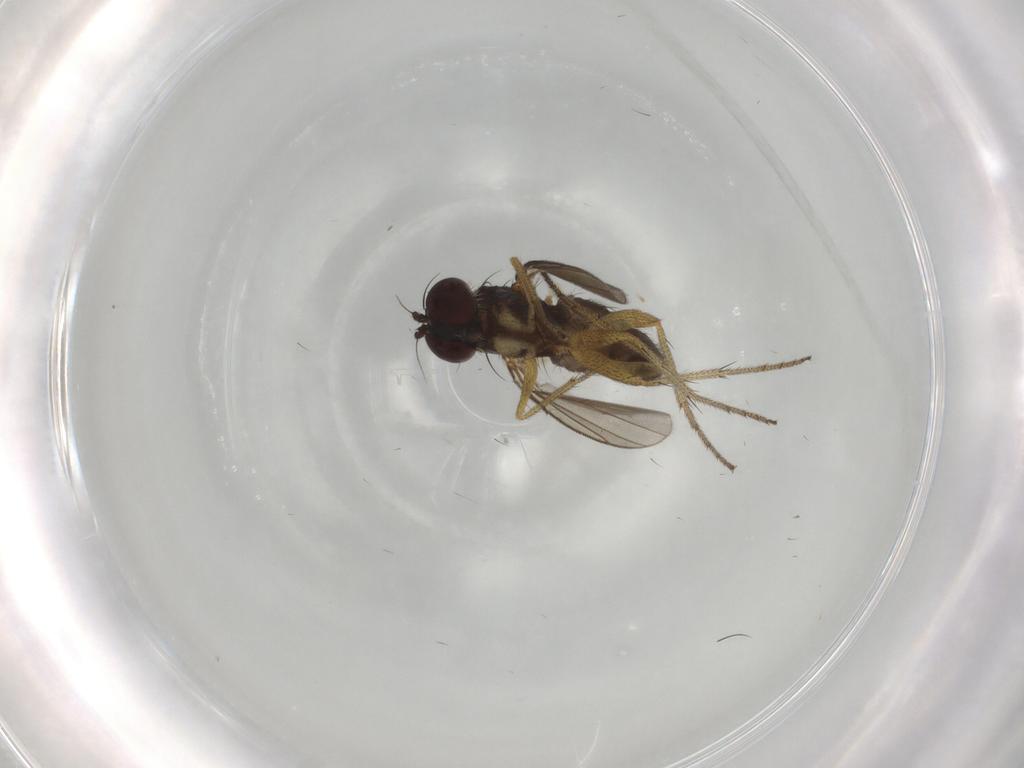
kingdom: Animalia
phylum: Arthropoda
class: Insecta
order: Diptera
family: Dolichopodidae
